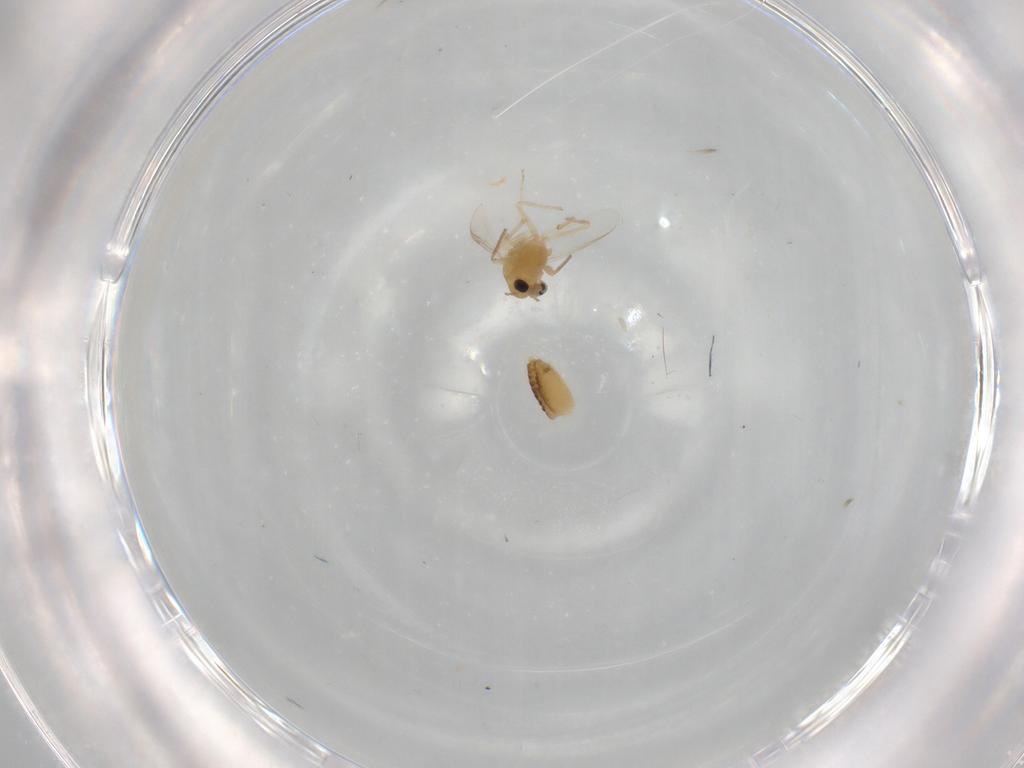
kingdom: Animalia
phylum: Arthropoda
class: Insecta
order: Diptera
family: Chironomidae
